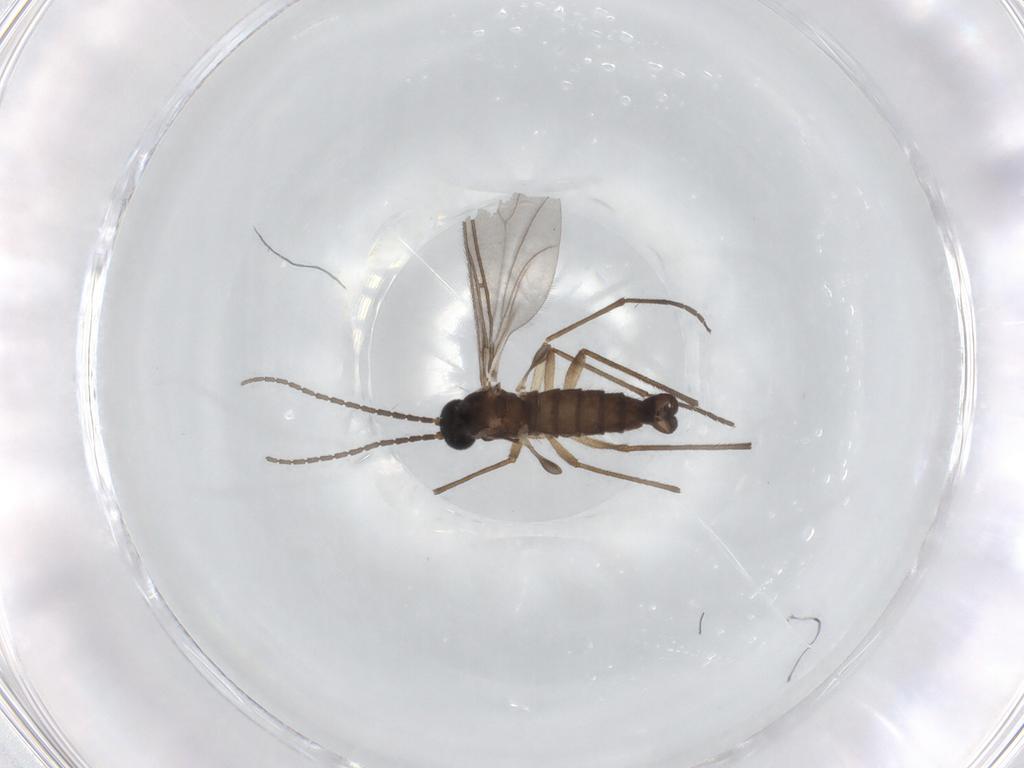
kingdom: Animalia
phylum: Arthropoda
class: Insecta
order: Diptera
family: Sciaridae
